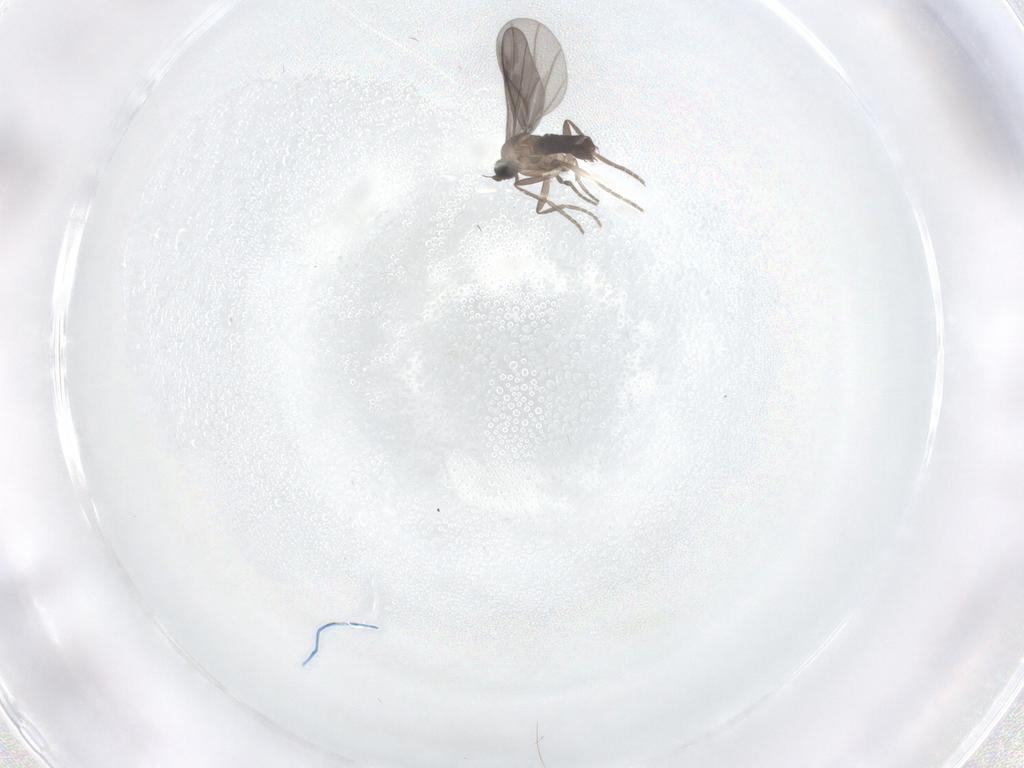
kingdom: Animalia
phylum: Arthropoda
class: Insecta
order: Diptera
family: Phoridae
